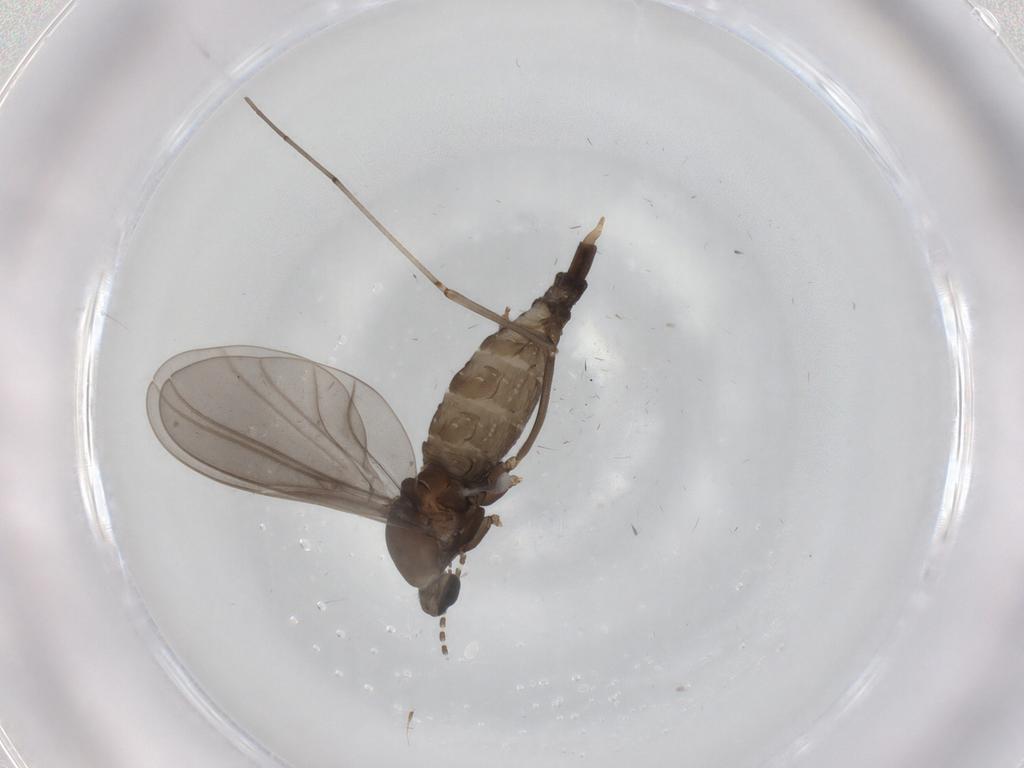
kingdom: Animalia
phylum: Arthropoda
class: Insecta
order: Diptera
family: Cecidomyiidae
